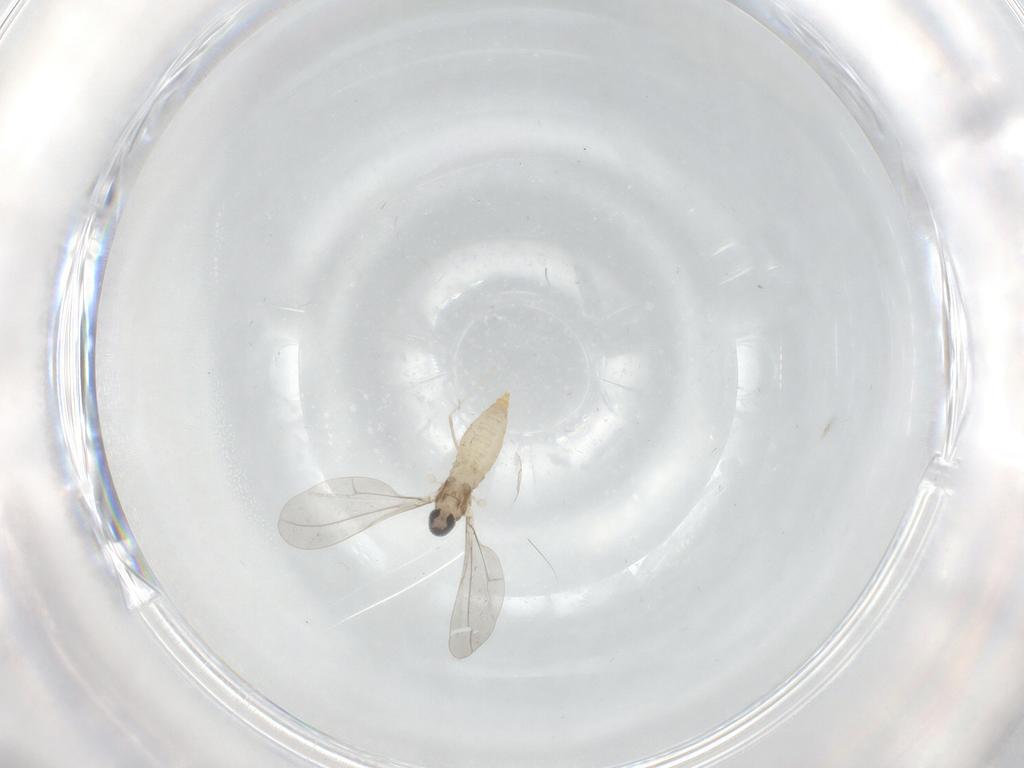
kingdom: Animalia
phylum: Arthropoda
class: Insecta
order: Diptera
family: Cecidomyiidae
